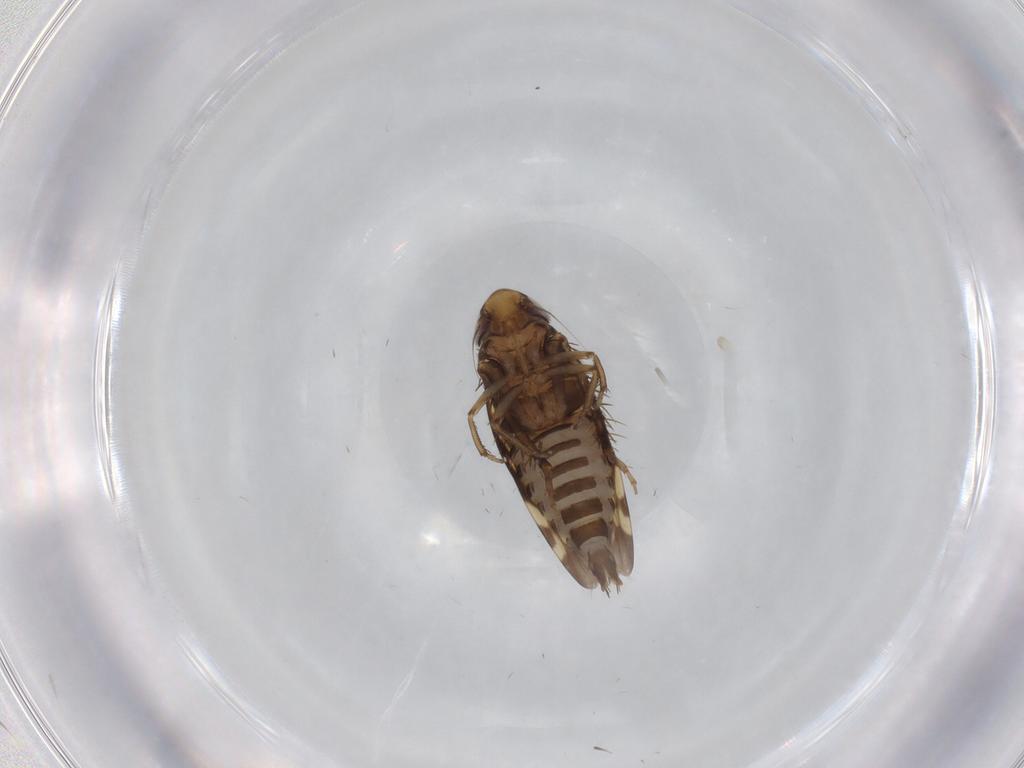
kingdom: Animalia
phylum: Arthropoda
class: Insecta
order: Hemiptera
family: Cicadellidae
